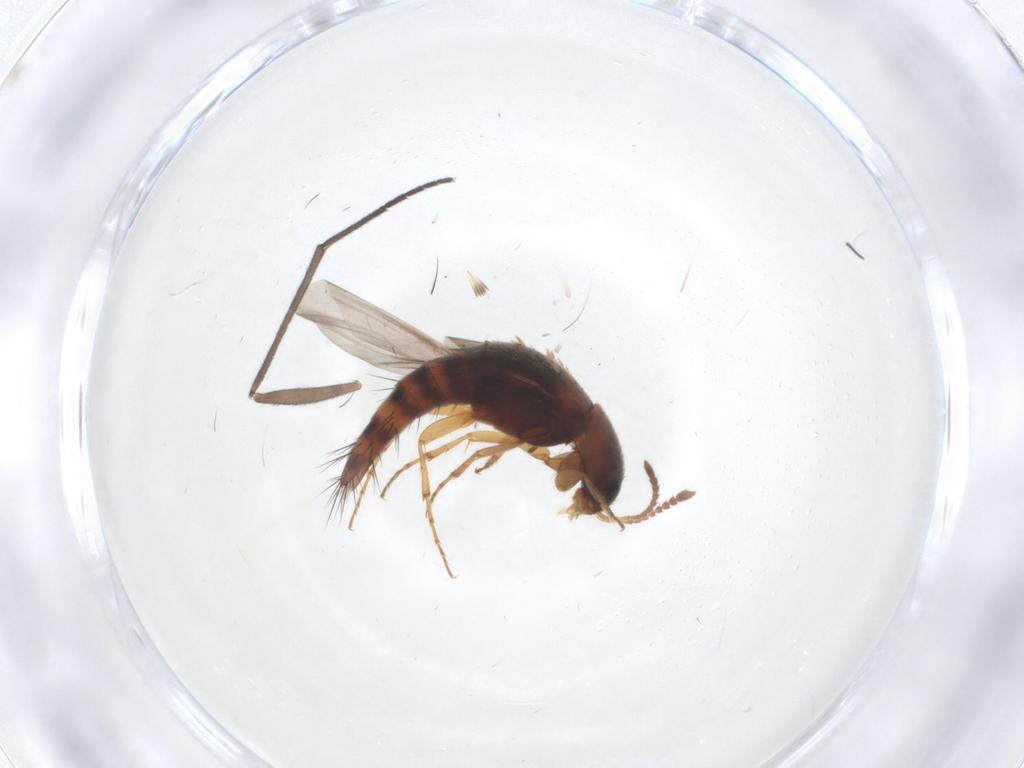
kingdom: Animalia
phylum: Arthropoda
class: Insecta
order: Coleoptera
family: Staphylinidae
